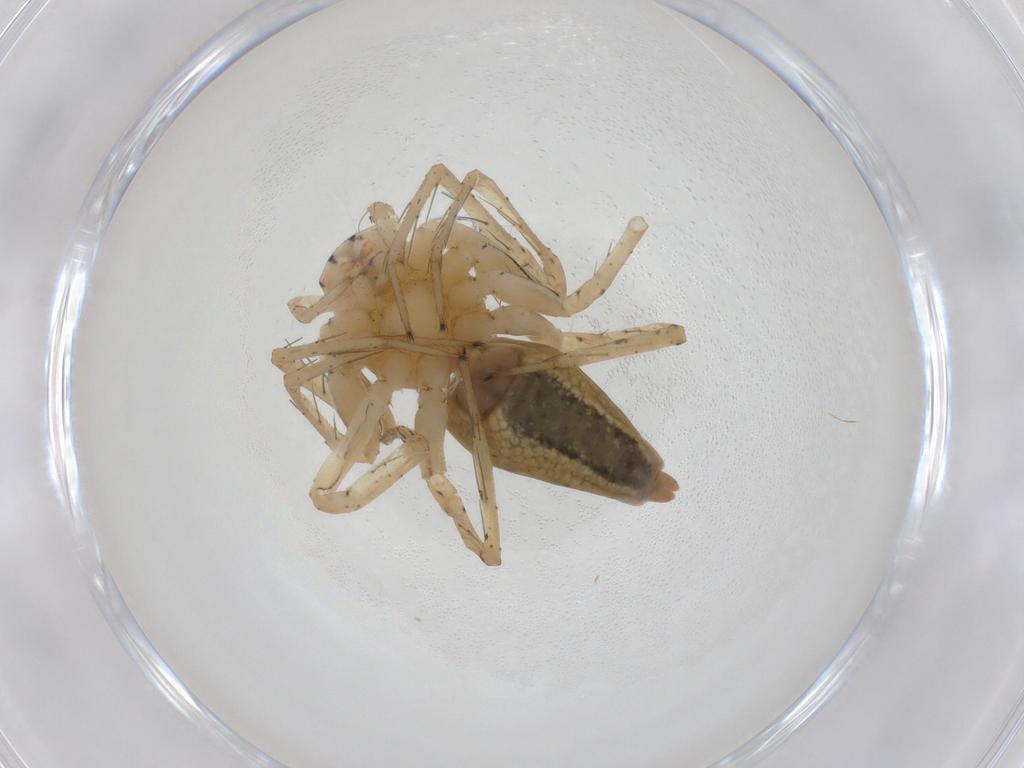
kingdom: Animalia
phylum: Arthropoda
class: Arachnida
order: Araneae
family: Oxyopidae
